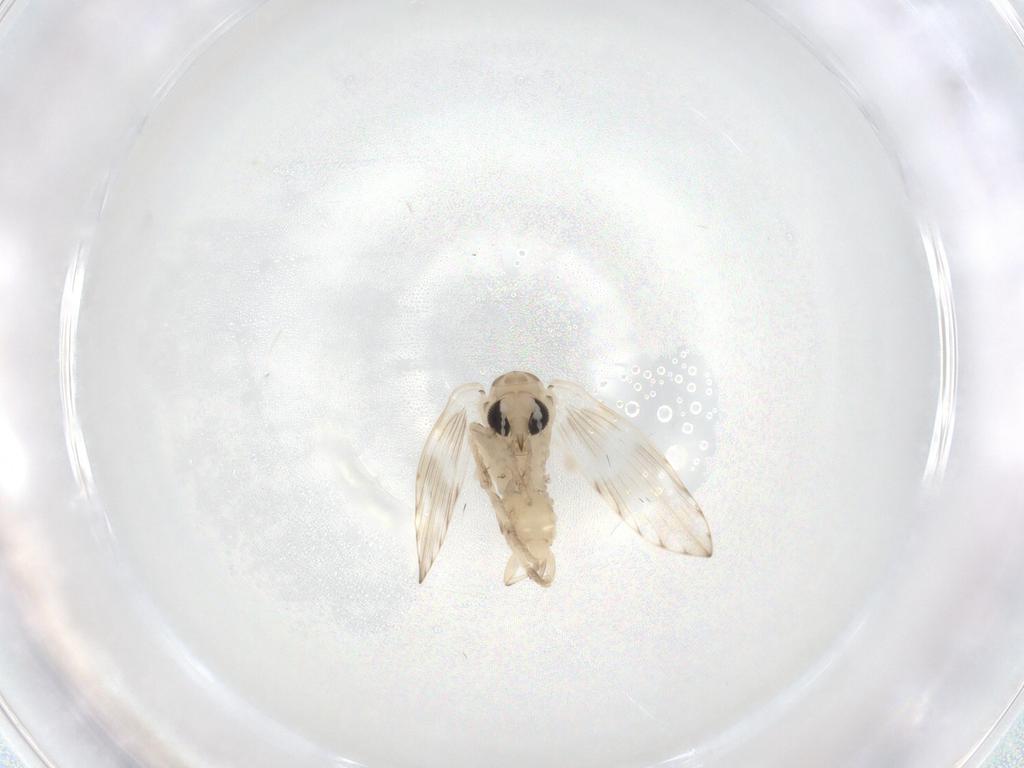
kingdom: Animalia
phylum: Arthropoda
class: Insecta
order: Diptera
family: Psychodidae
